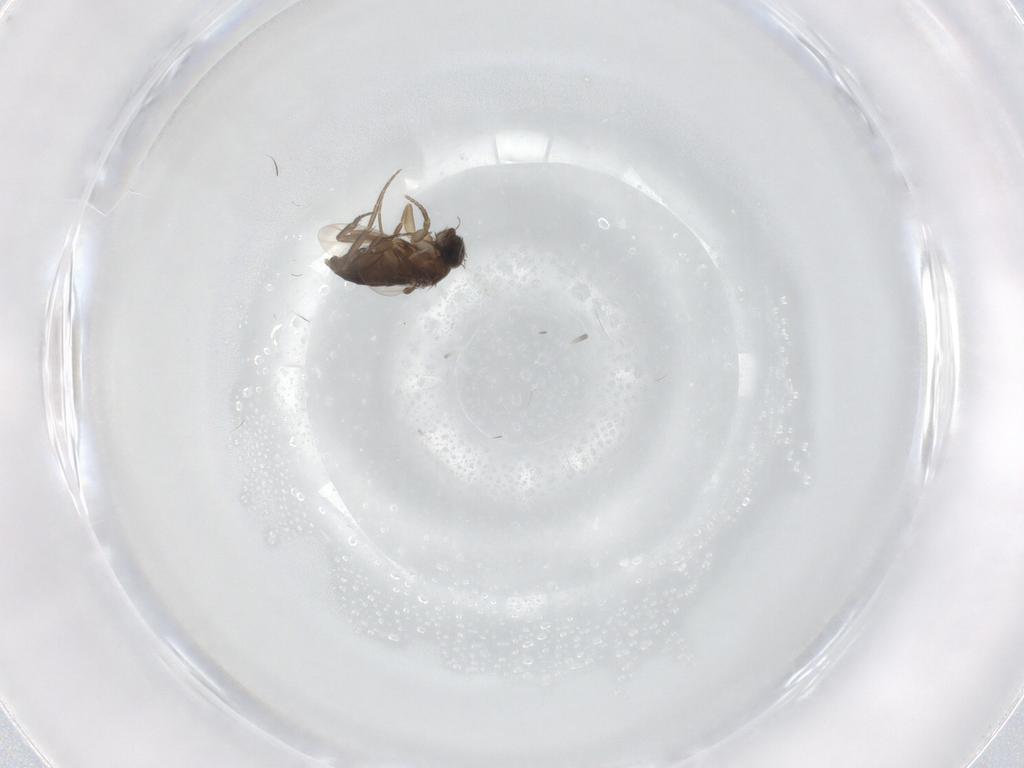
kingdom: Animalia
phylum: Arthropoda
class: Insecta
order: Diptera
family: Phoridae
